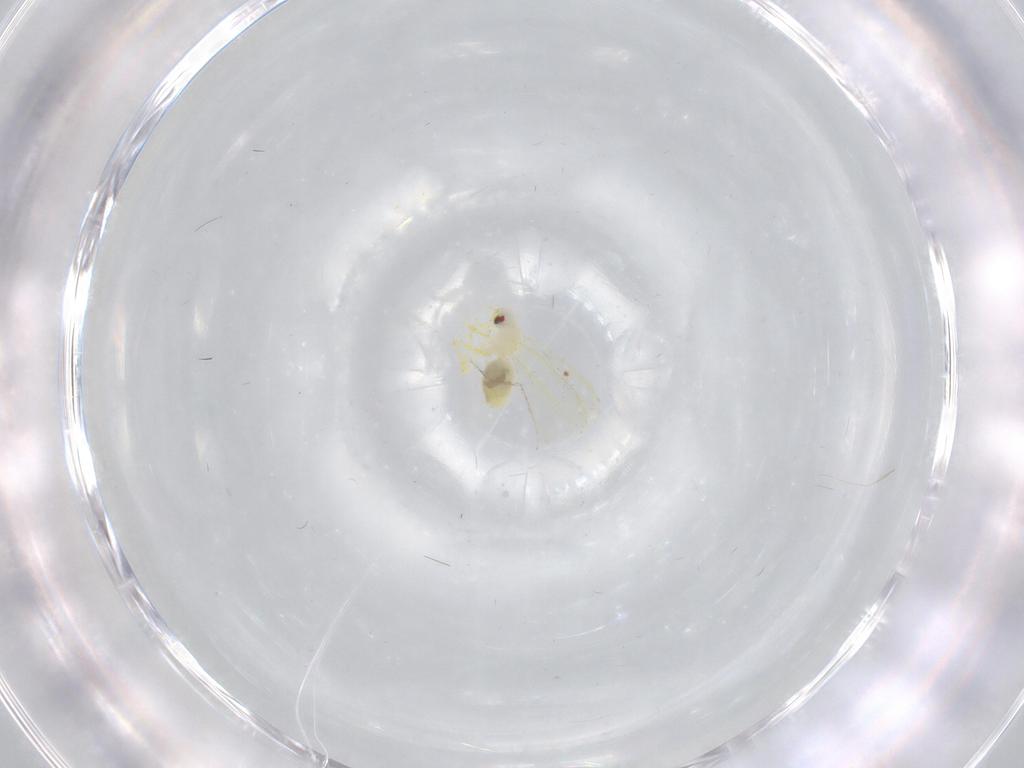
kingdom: Animalia
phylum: Arthropoda
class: Insecta
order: Hemiptera
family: Aleyrodidae
